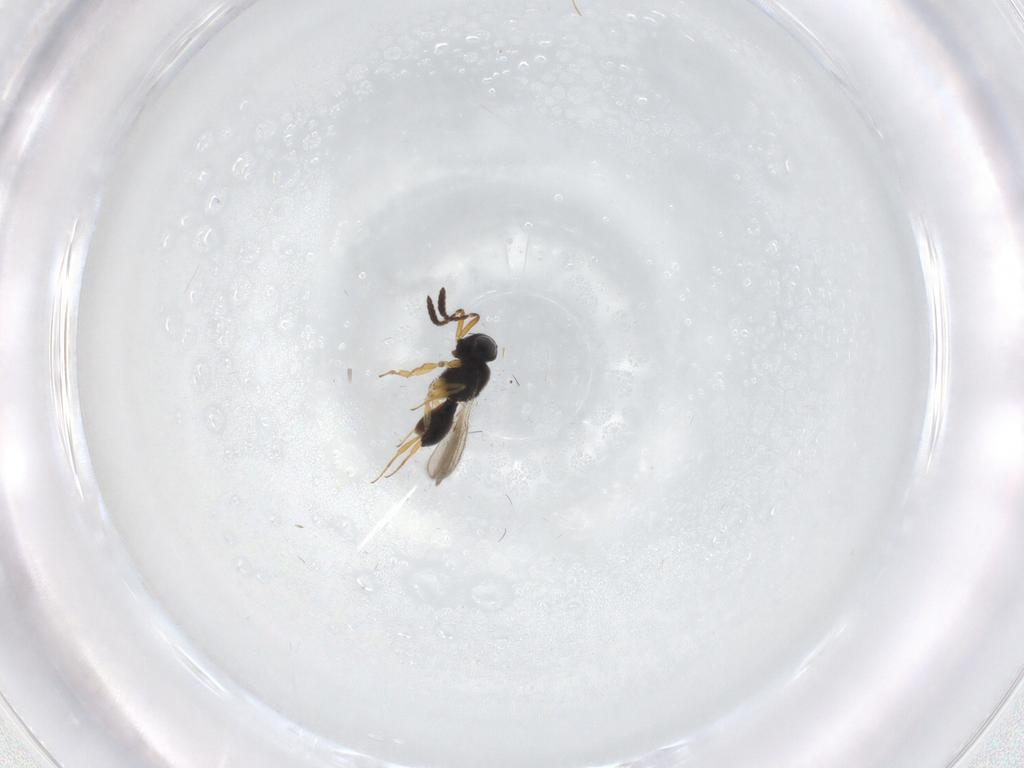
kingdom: Animalia
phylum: Arthropoda
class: Insecta
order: Hymenoptera
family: Scelionidae
